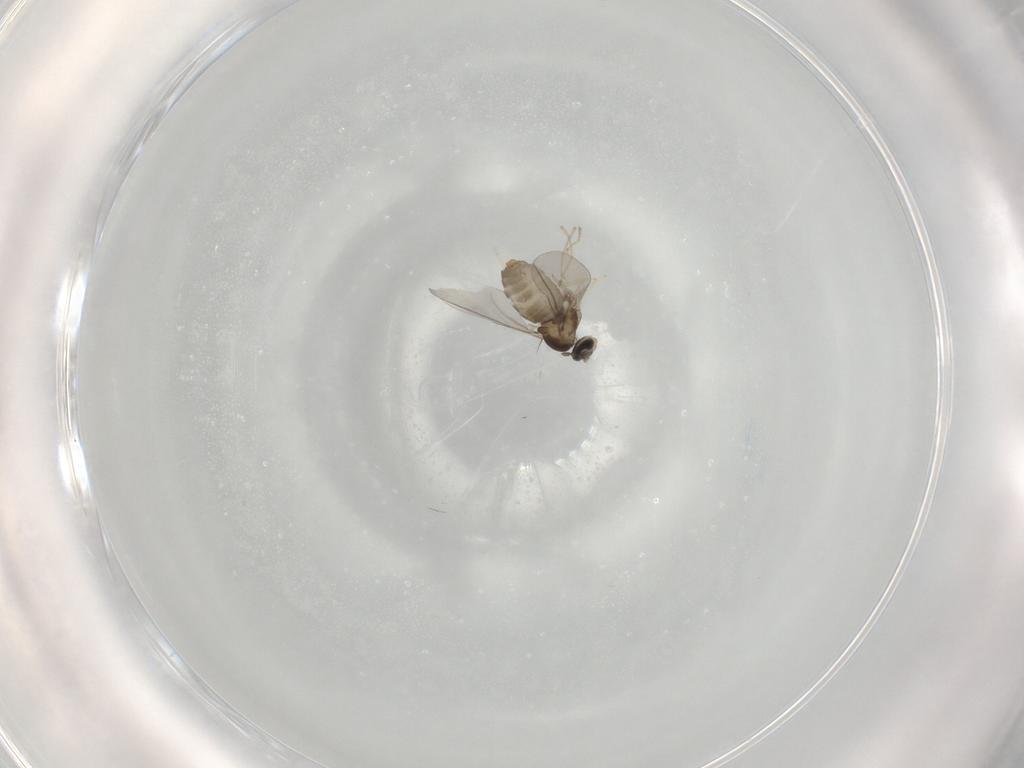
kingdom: Animalia
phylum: Arthropoda
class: Insecta
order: Diptera
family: Cecidomyiidae
